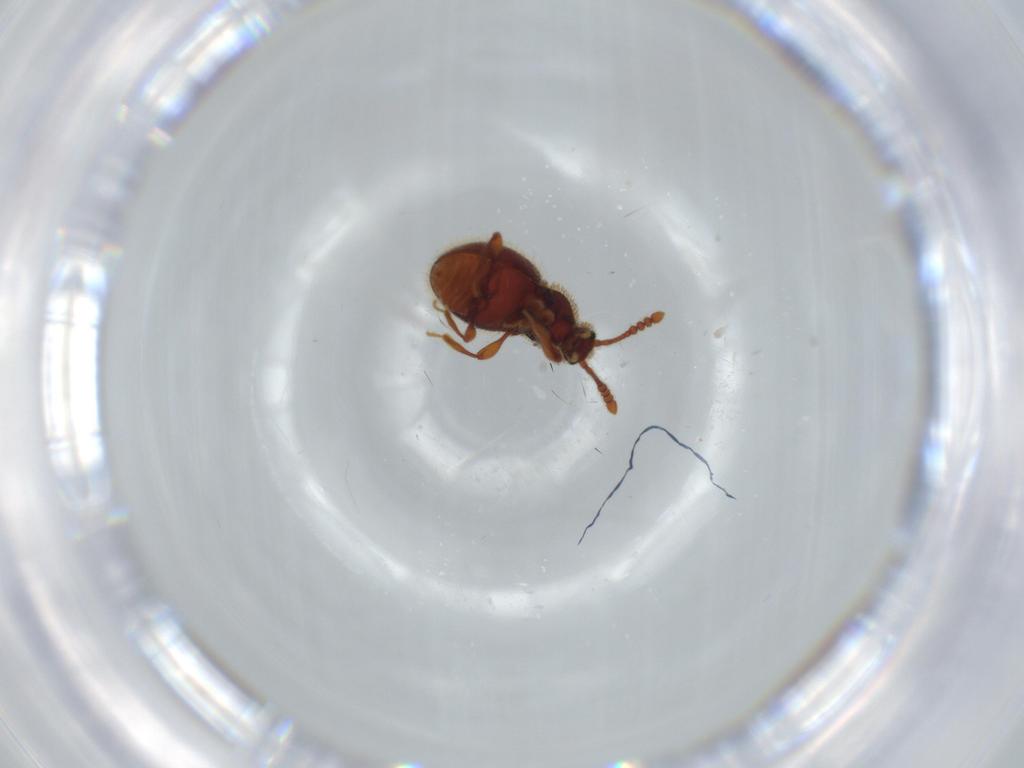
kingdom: Animalia
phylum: Arthropoda
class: Insecta
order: Coleoptera
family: Staphylinidae
